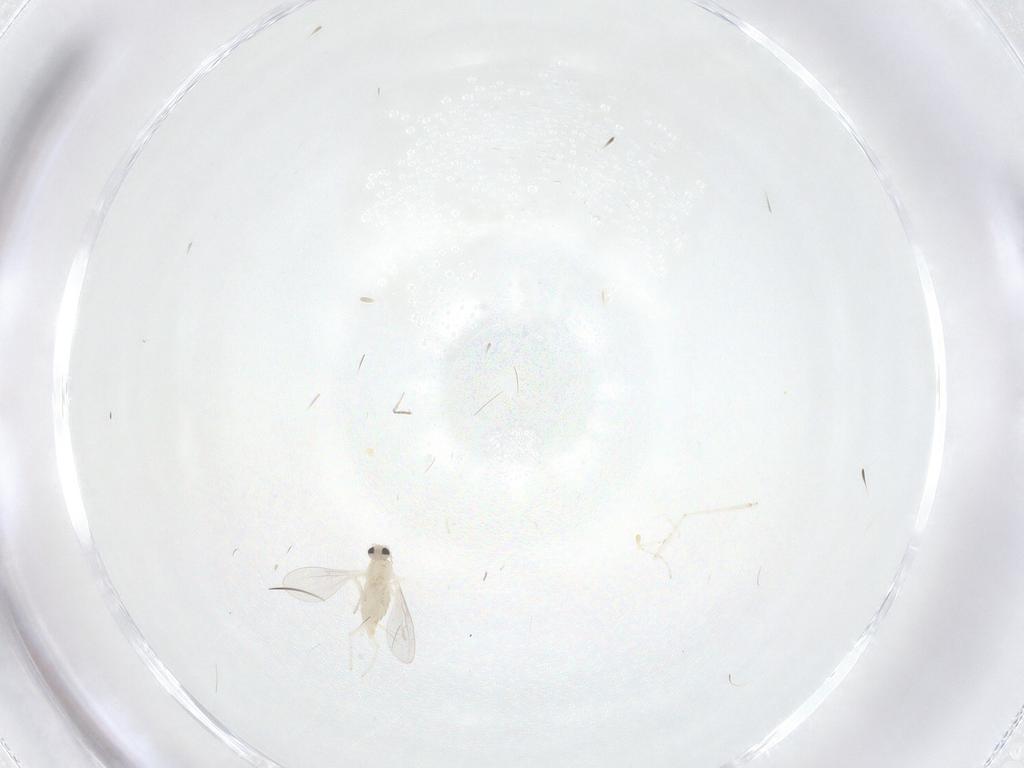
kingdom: Animalia
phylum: Arthropoda
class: Insecta
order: Diptera
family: Cecidomyiidae
